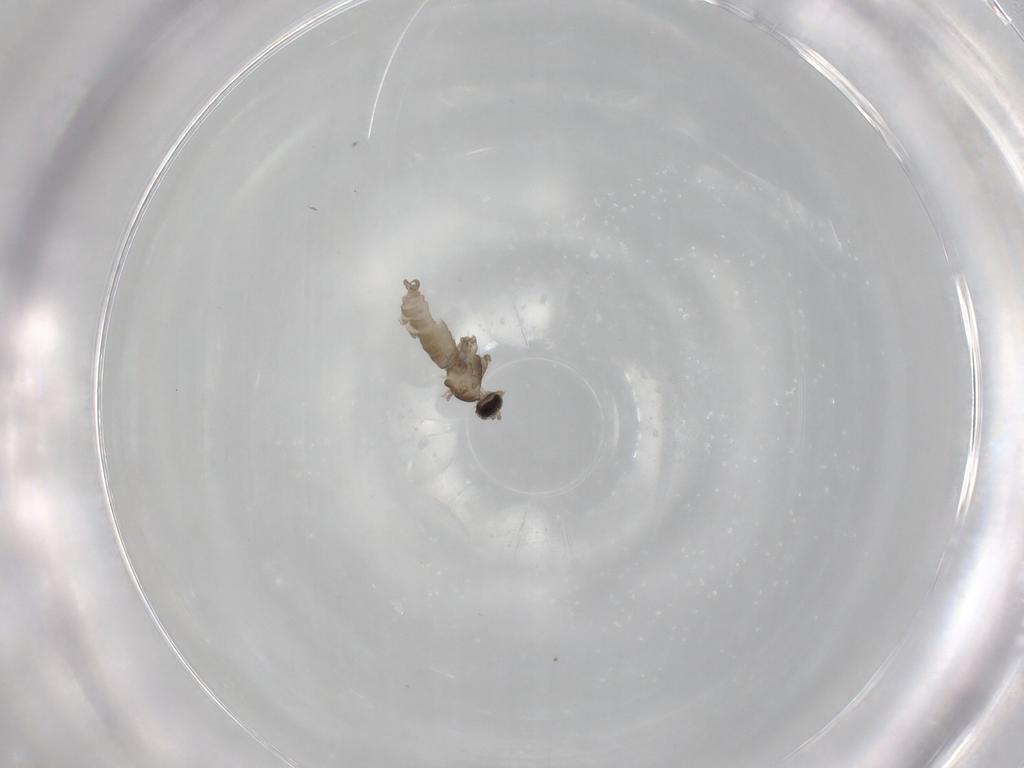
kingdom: Animalia
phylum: Arthropoda
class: Insecta
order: Diptera
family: Cecidomyiidae
